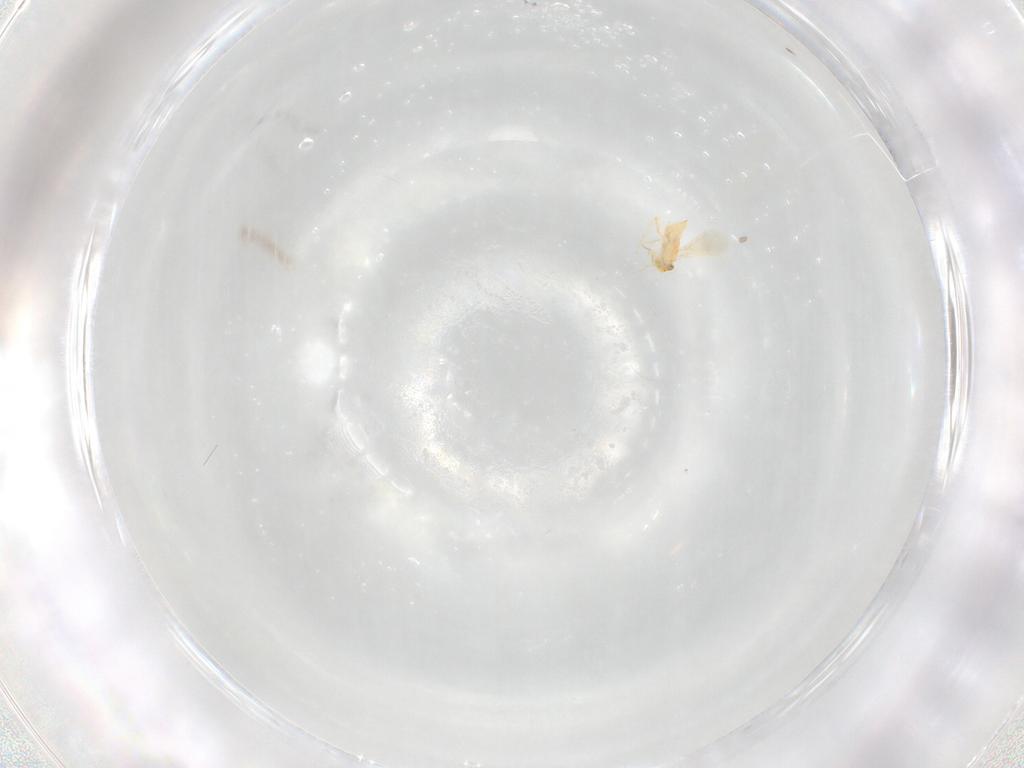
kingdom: Animalia
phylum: Arthropoda
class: Insecta
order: Hymenoptera
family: Aphelinidae
